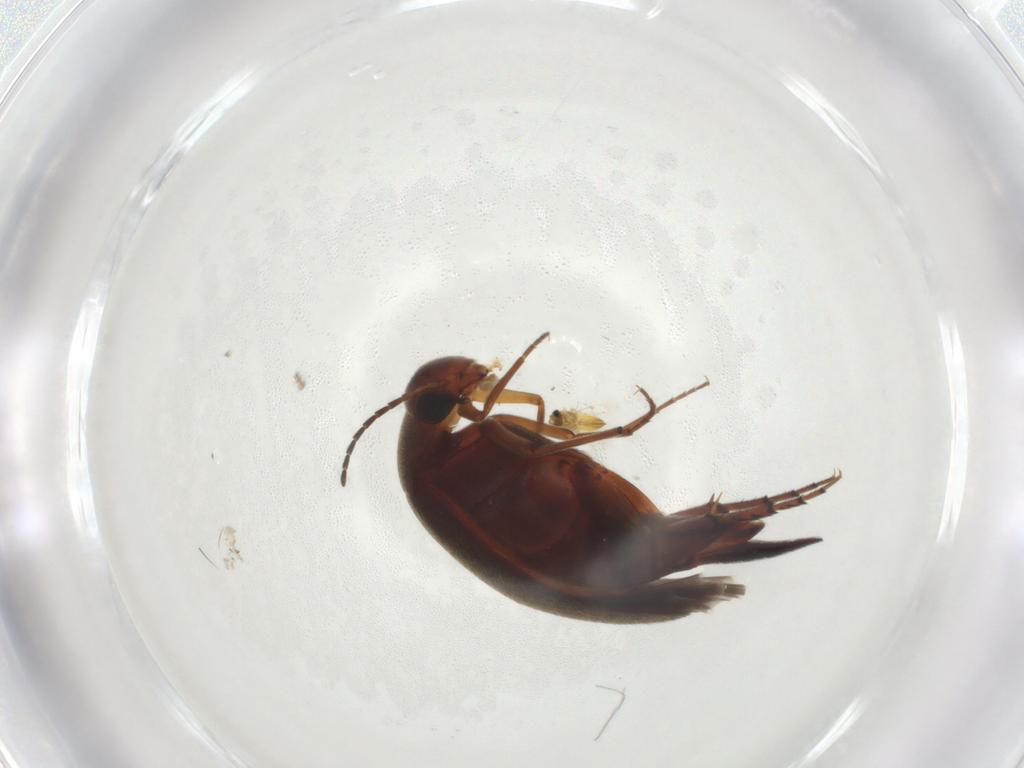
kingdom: Animalia
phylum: Arthropoda
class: Insecta
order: Coleoptera
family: Mordellidae
